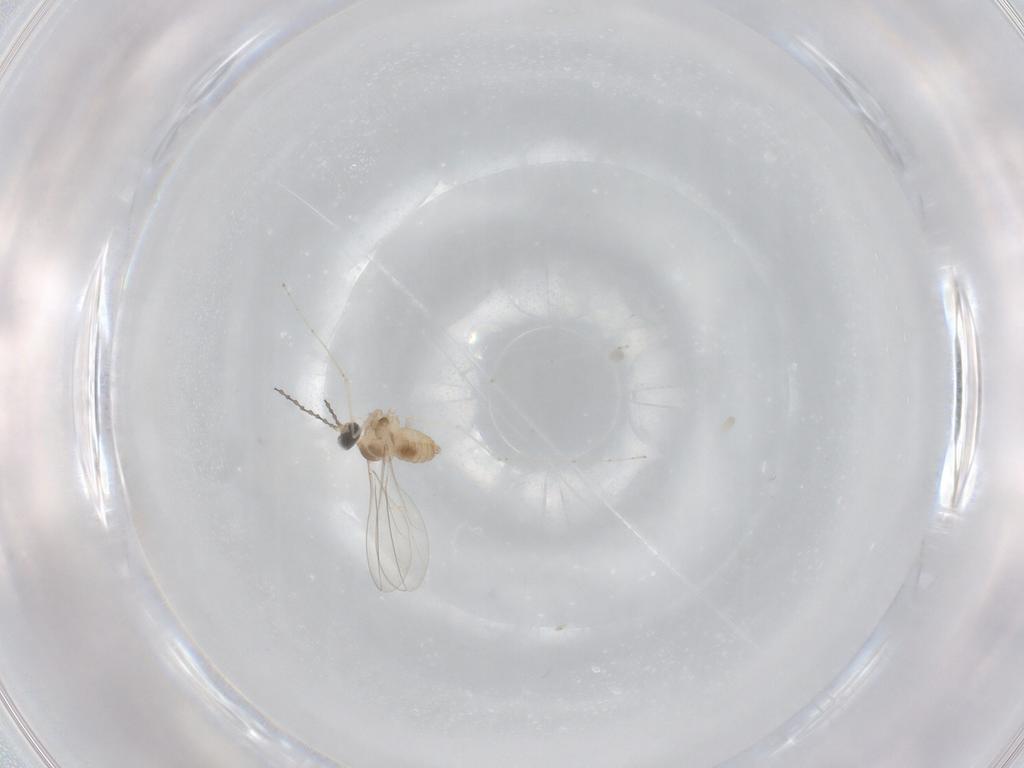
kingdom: Animalia
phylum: Arthropoda
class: Insecta
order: Diptera
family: Cecidomyiidae
